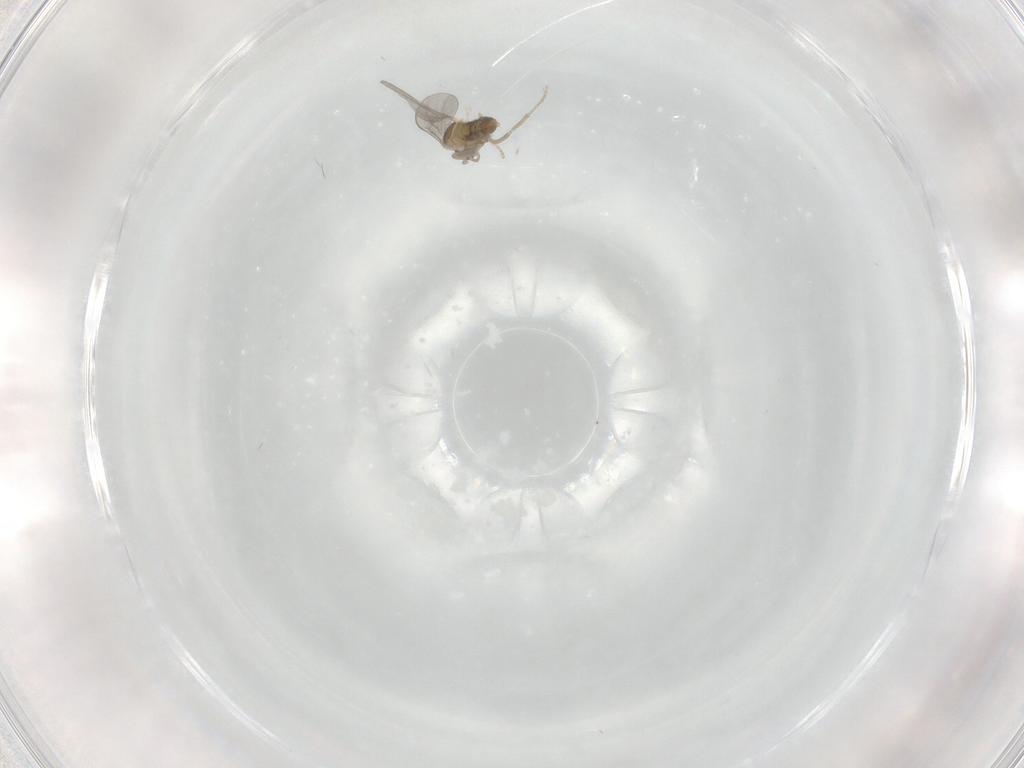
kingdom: Animalia
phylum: Arthropoda
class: Insecta
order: Diptera
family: Cecidomyiidae
